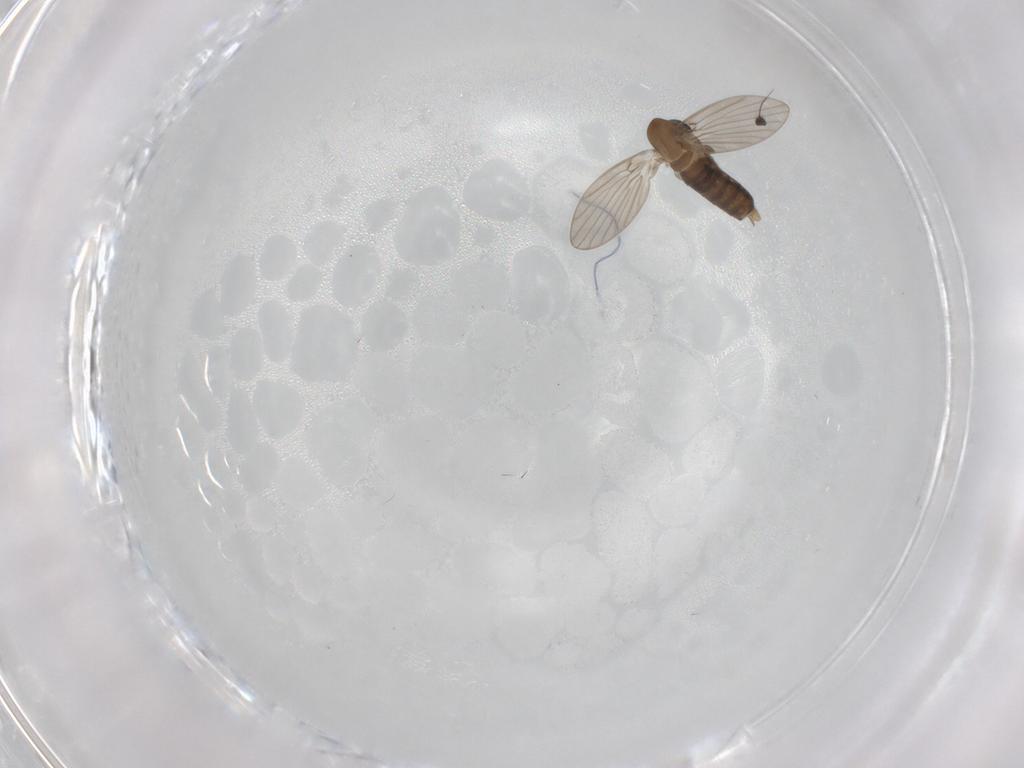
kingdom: Animalia
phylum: Arthropoda
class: Insecta
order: Diptera
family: Dolichopodidae
